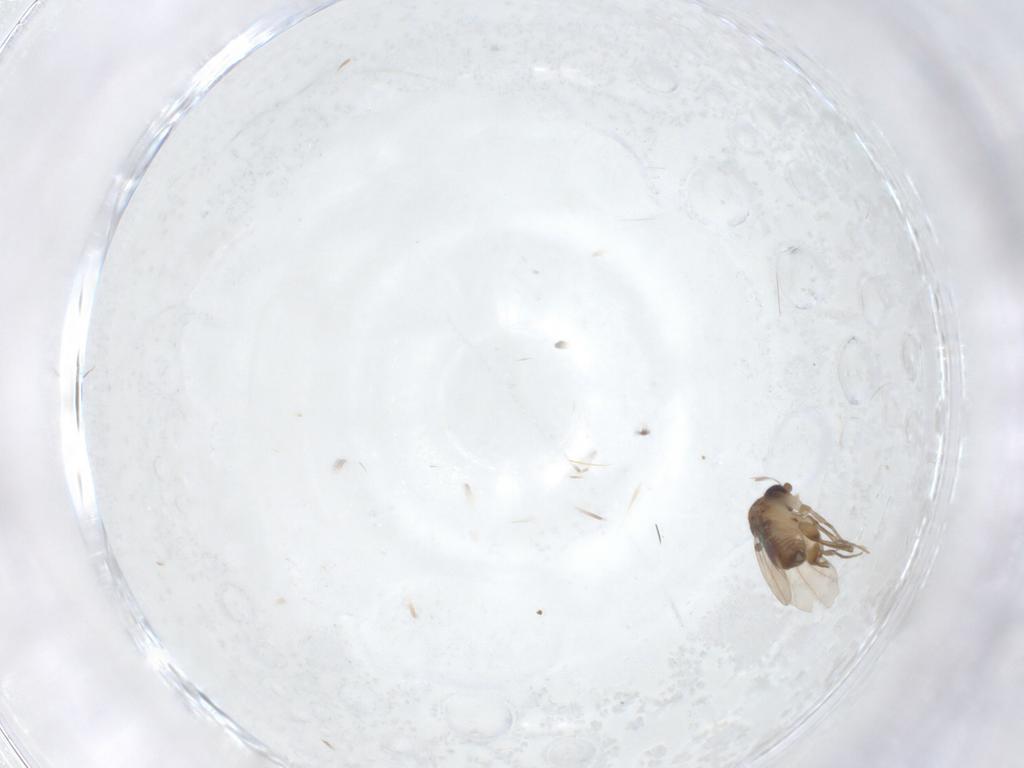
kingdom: Animalia
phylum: Arthropoda
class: Insecta
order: Diptera
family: Phoridae
